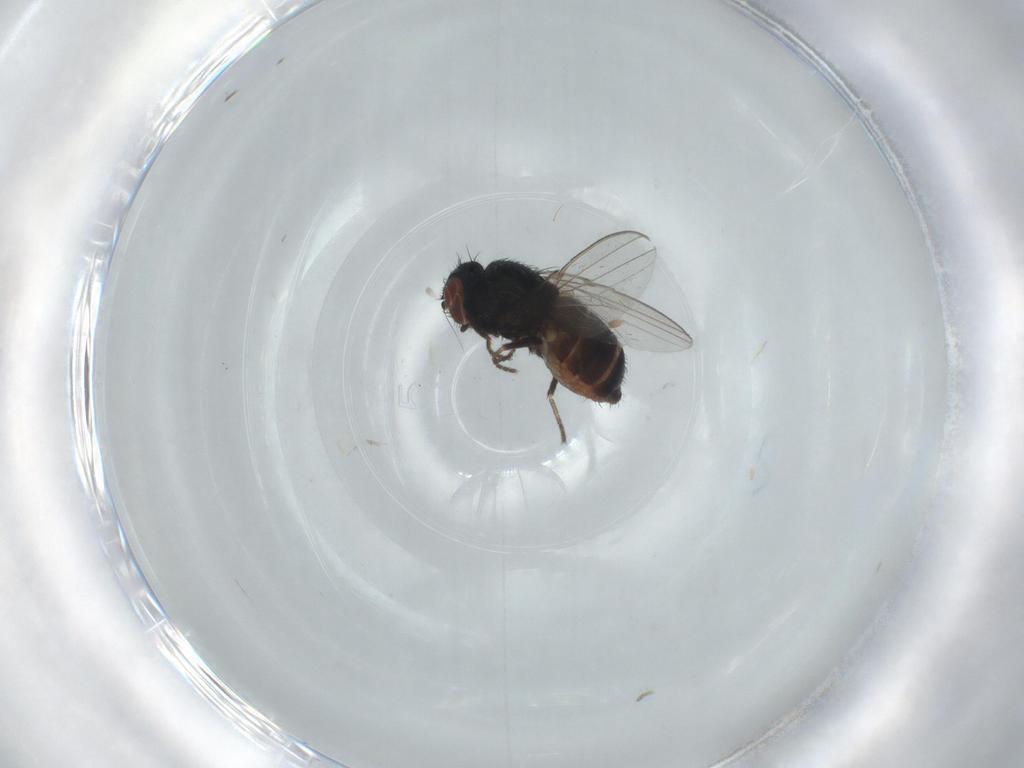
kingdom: Animalia
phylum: Arthropoda
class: Insecta
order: Diptera
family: Milichiidae
